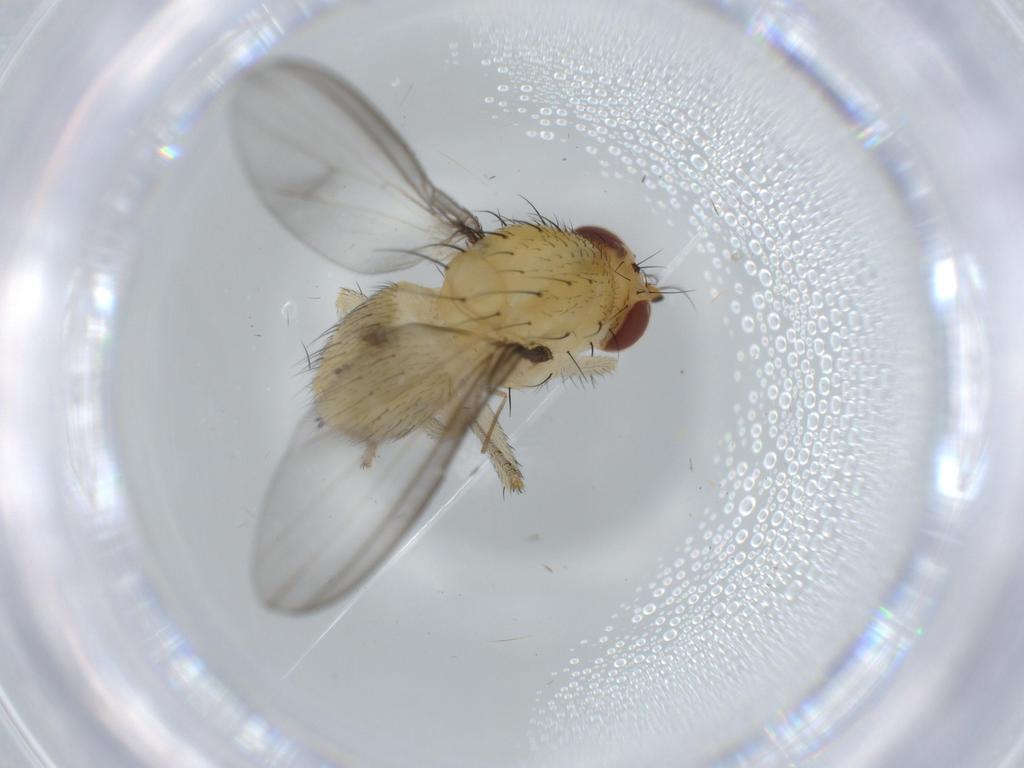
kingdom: Animalia
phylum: Arthropoda
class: Insecta
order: Diptera
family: Lauxaniidae
